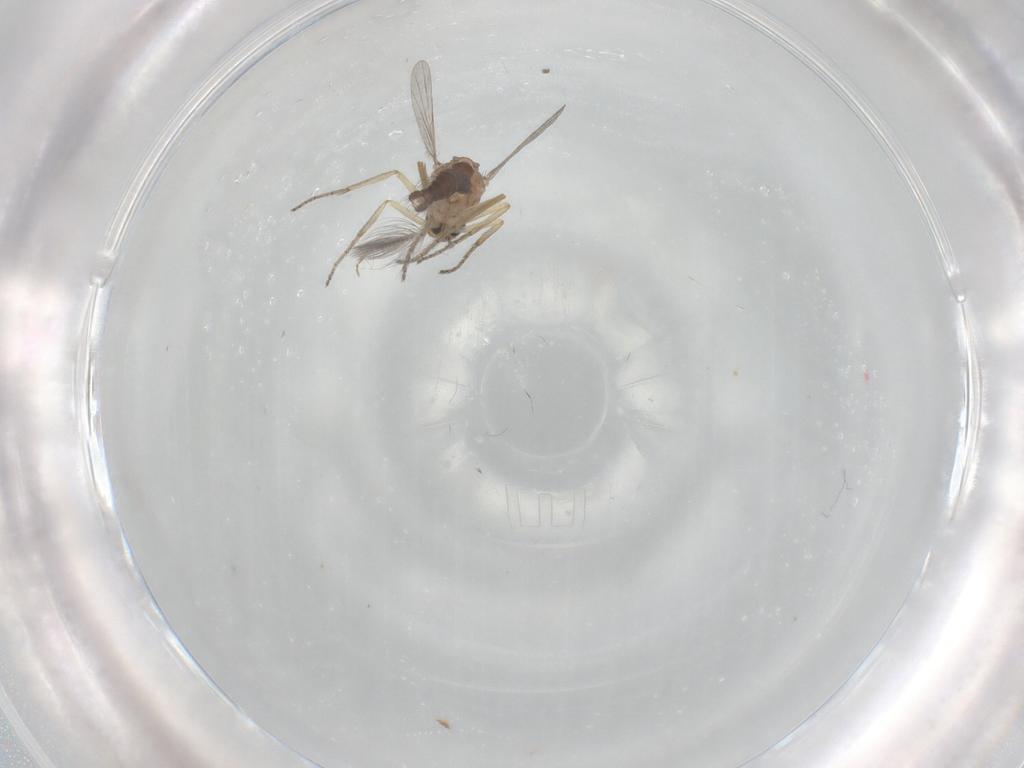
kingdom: Animalia
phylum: Arthropoda
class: Insecta
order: Diptera
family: Ceratopogonidae
